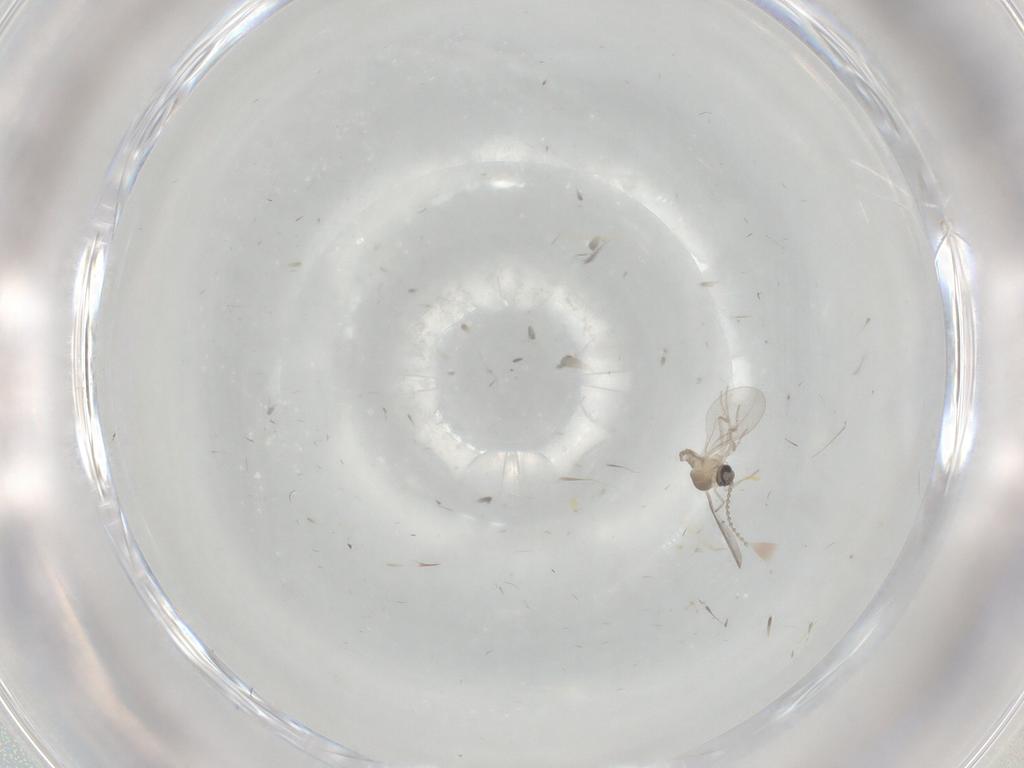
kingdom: Animalia
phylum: Arthropoda
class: Insecta
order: Diptera
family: Cecidomyiidae
